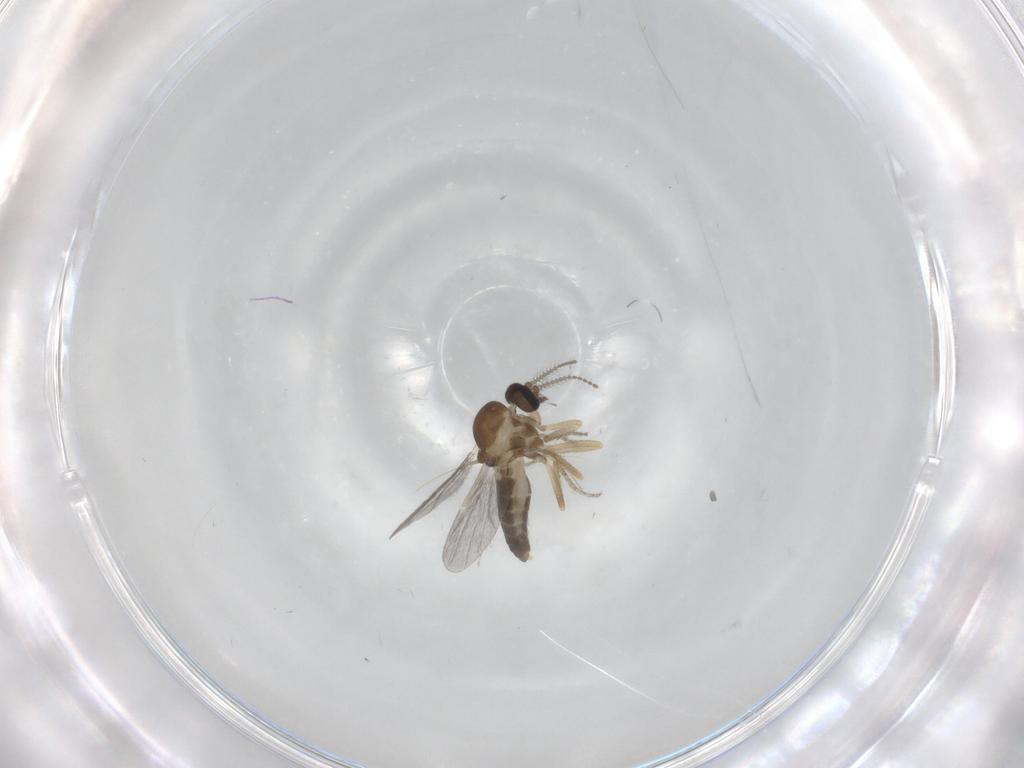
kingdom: Animalia
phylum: Arthropoda
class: Insecta
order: Diptera
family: Ceratopogonidae
